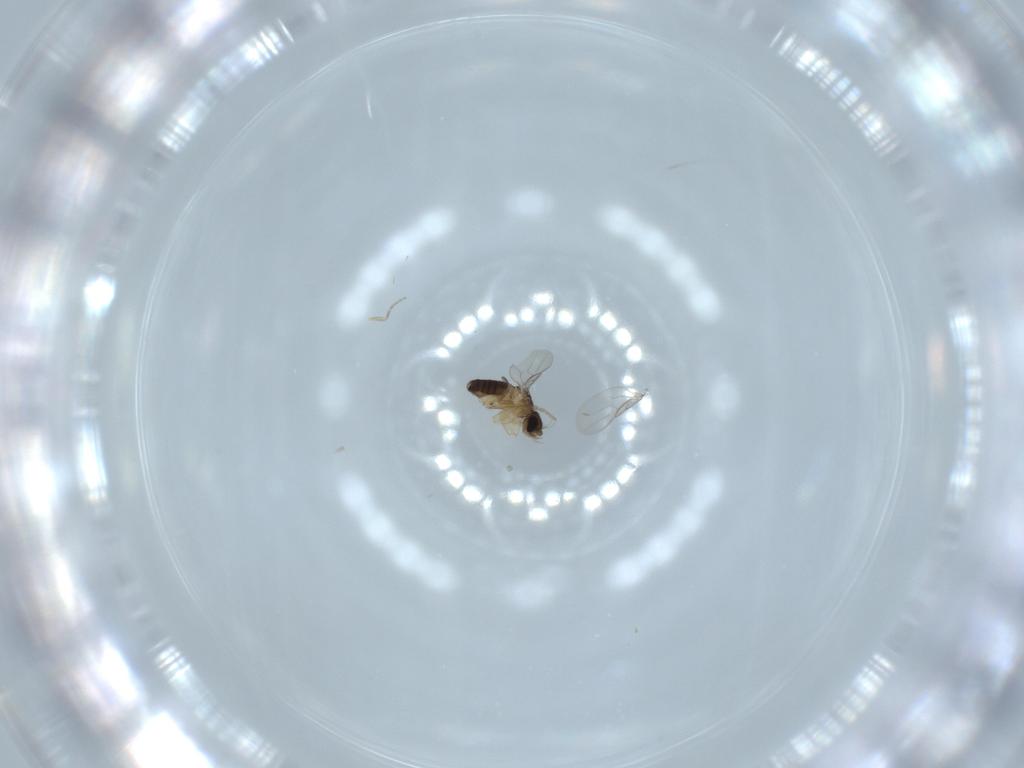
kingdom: Animalia
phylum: Arthropoda
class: Insecta
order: Diptera
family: Phoridae
